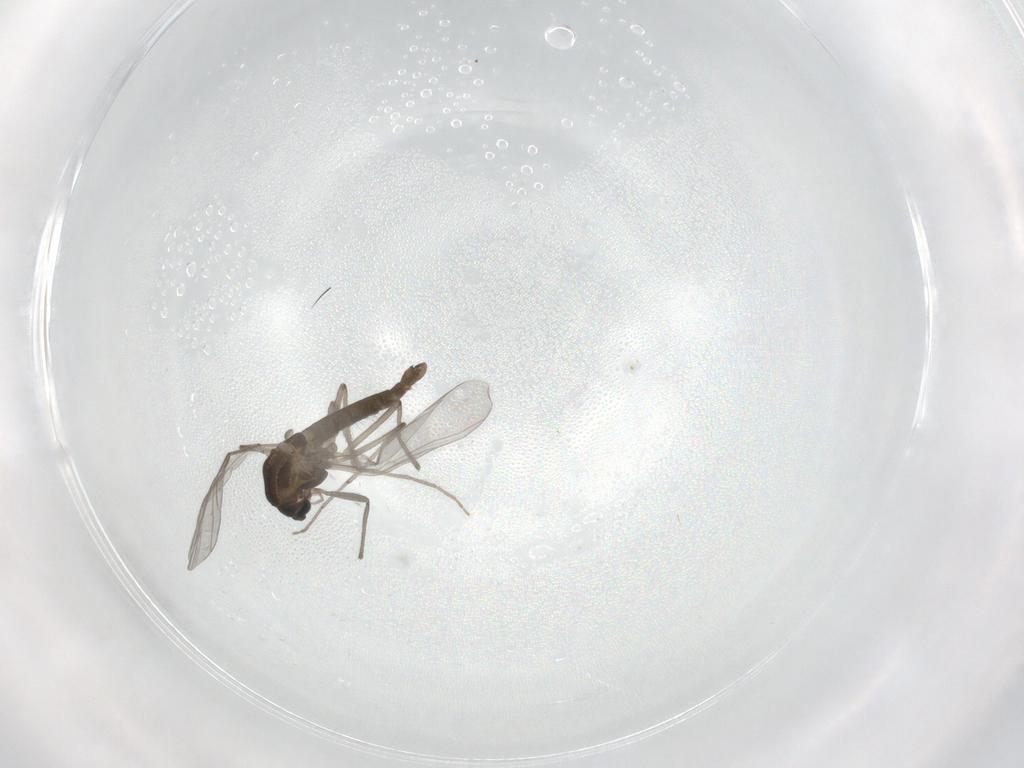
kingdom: Animalia
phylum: Arthropoda
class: Insecta
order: Diptera
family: Chironomidae
